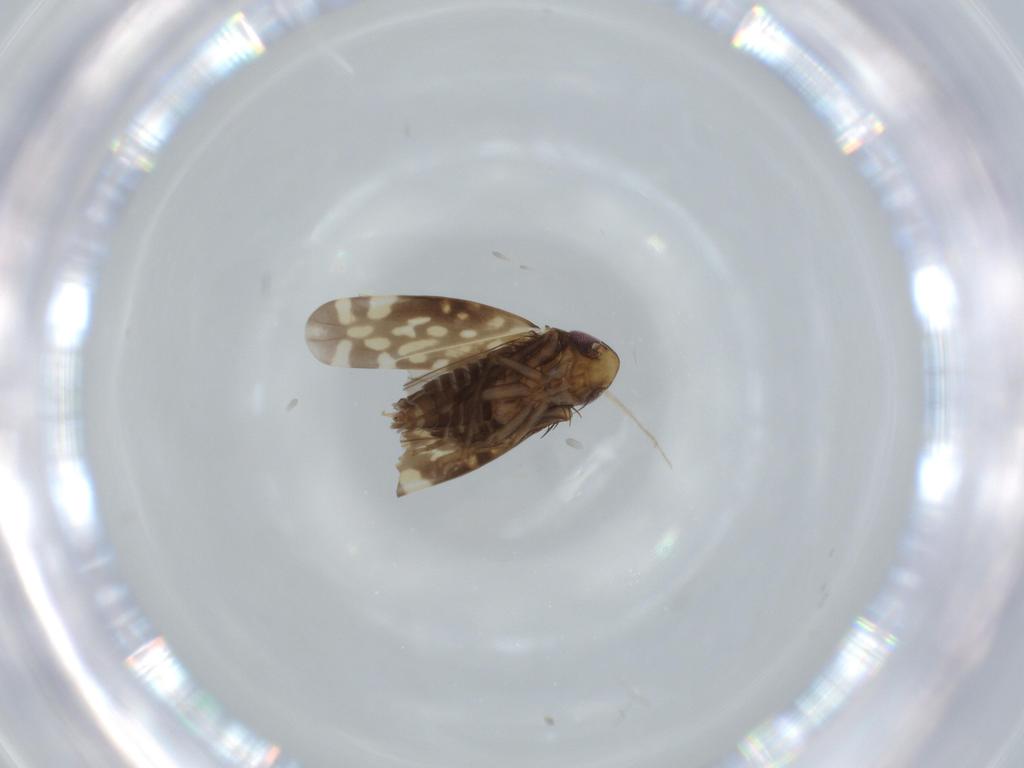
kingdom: Animalia
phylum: Arthropoda
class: Insecta
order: Hemiptera
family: Cicadellidae
